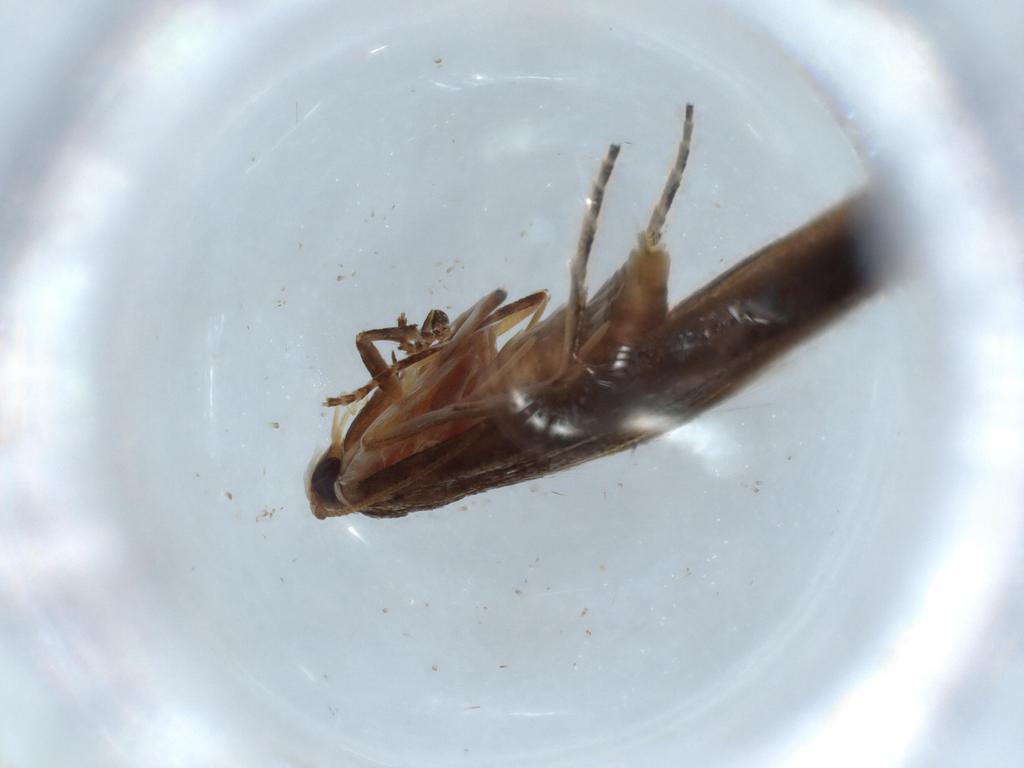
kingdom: Animalia
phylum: Arthropoda
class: Insecta
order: Lepidoptera
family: Stathmopodidae
